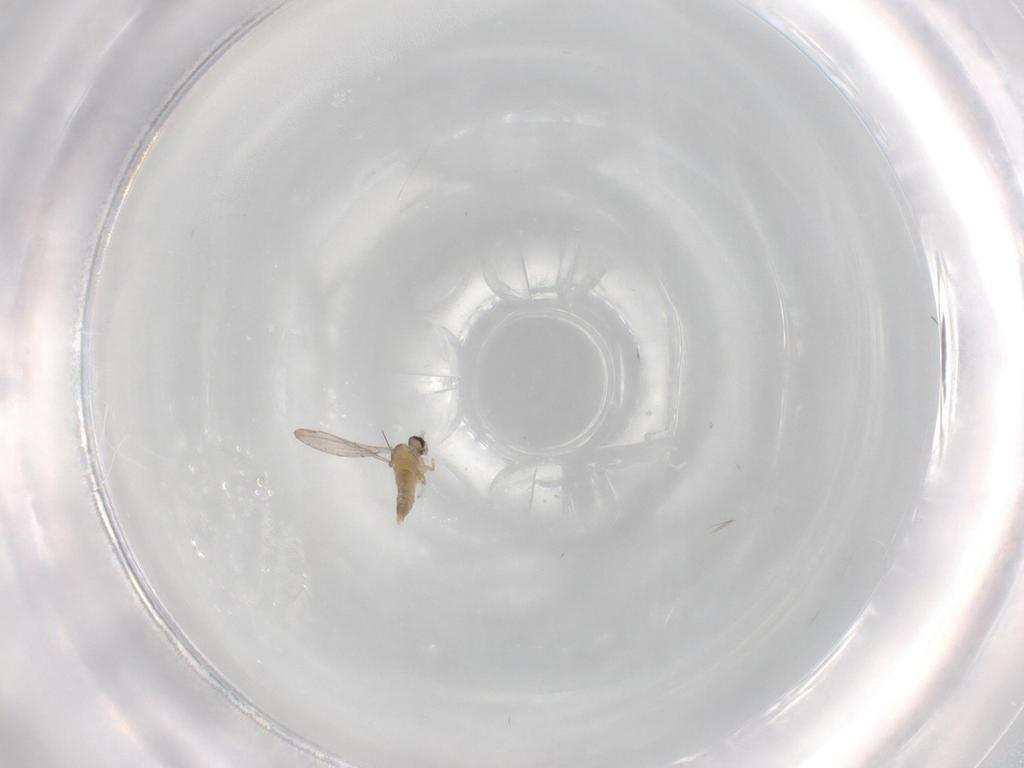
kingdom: Animalia
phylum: Arthropoda
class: Insecta
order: Diptera
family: Cecidomyiidae
